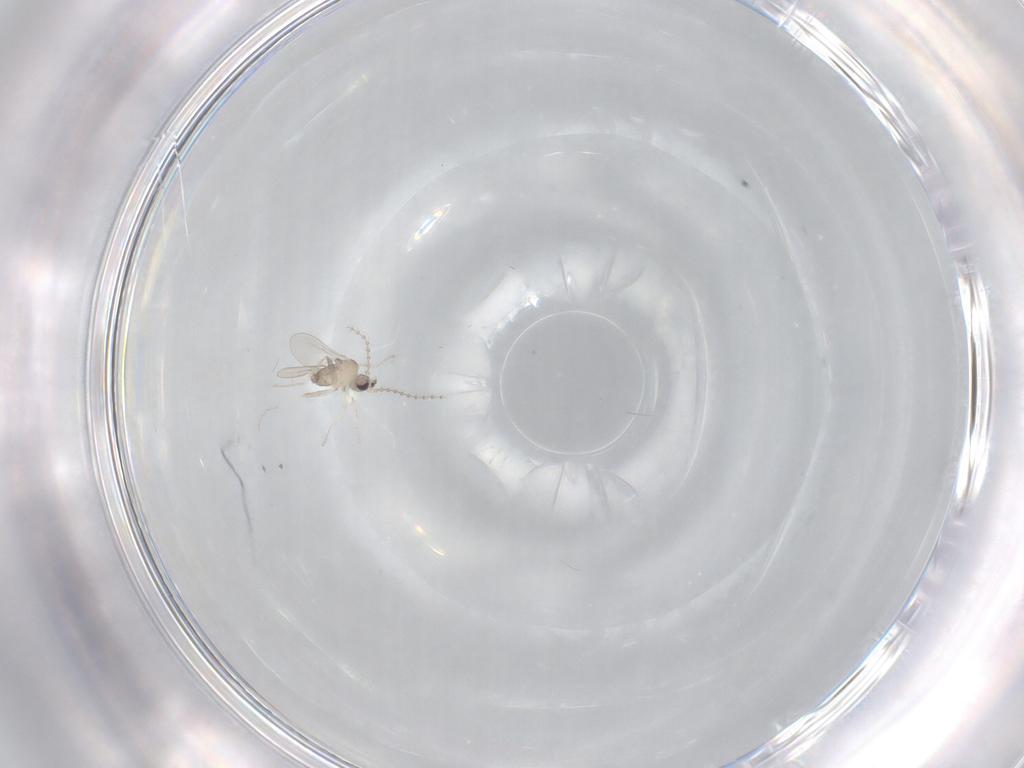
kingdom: Animalia
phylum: Arthropoda
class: Insecta
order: Diptera
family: Cecidomyiidae
